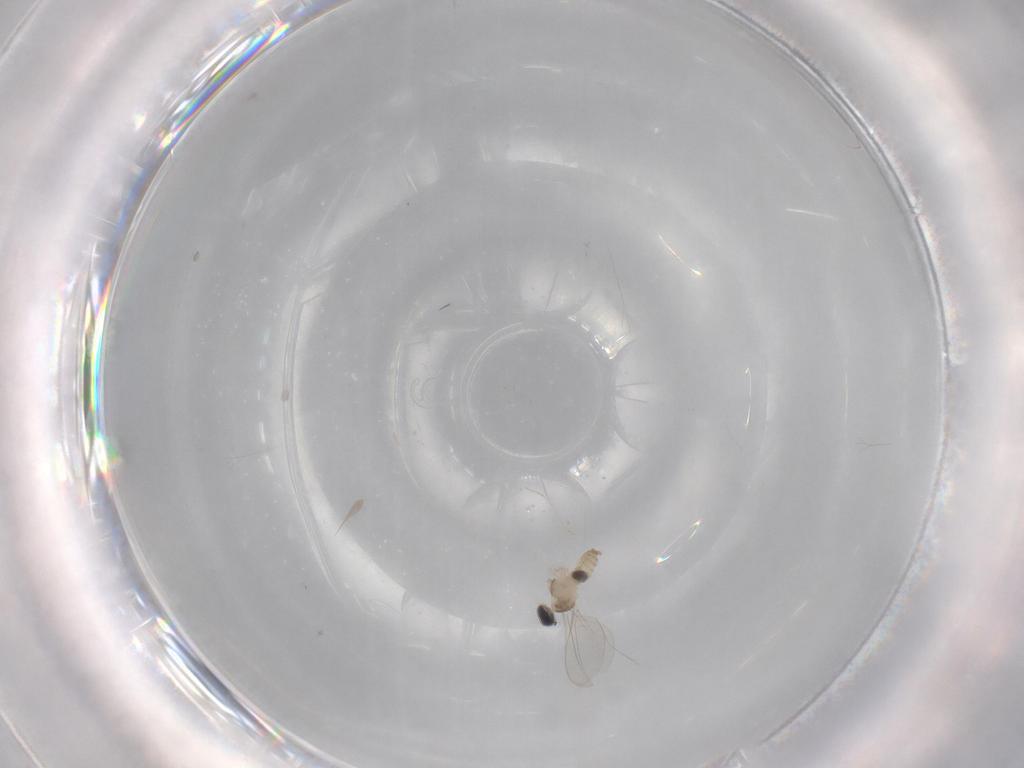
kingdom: Animalia
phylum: Arthropoda
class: Insecta
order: Diptera
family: Cecidomyiidae
